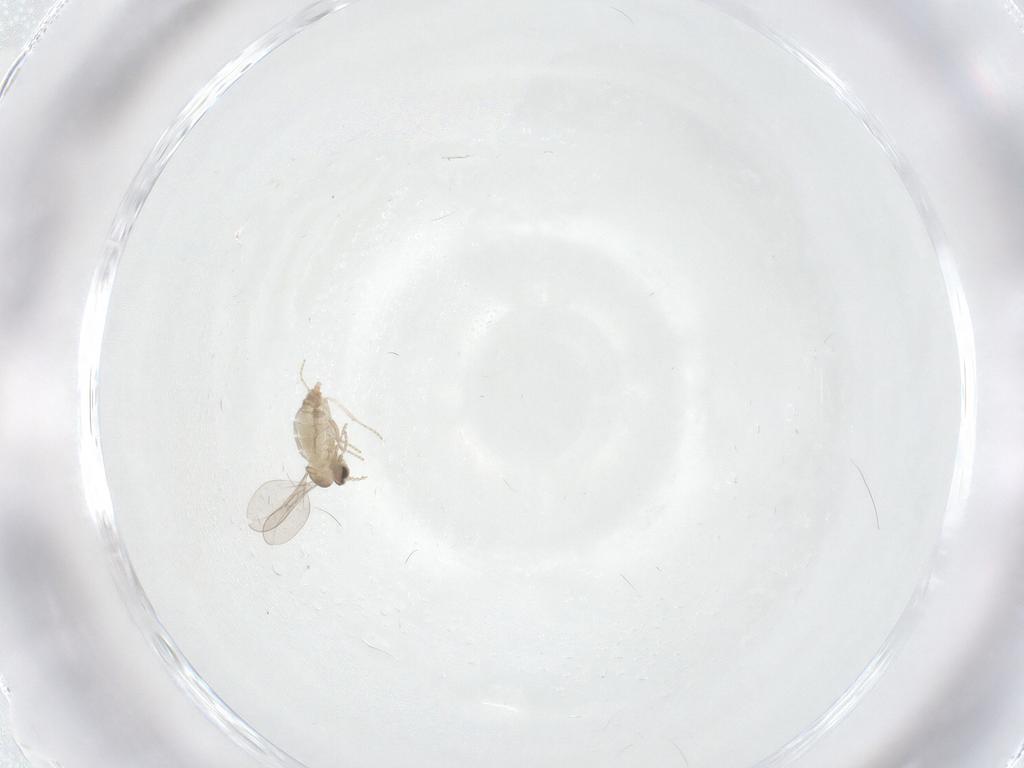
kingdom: Animalia
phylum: Arthropoda
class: Insecta
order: Diptera
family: Cecidomyiidae
